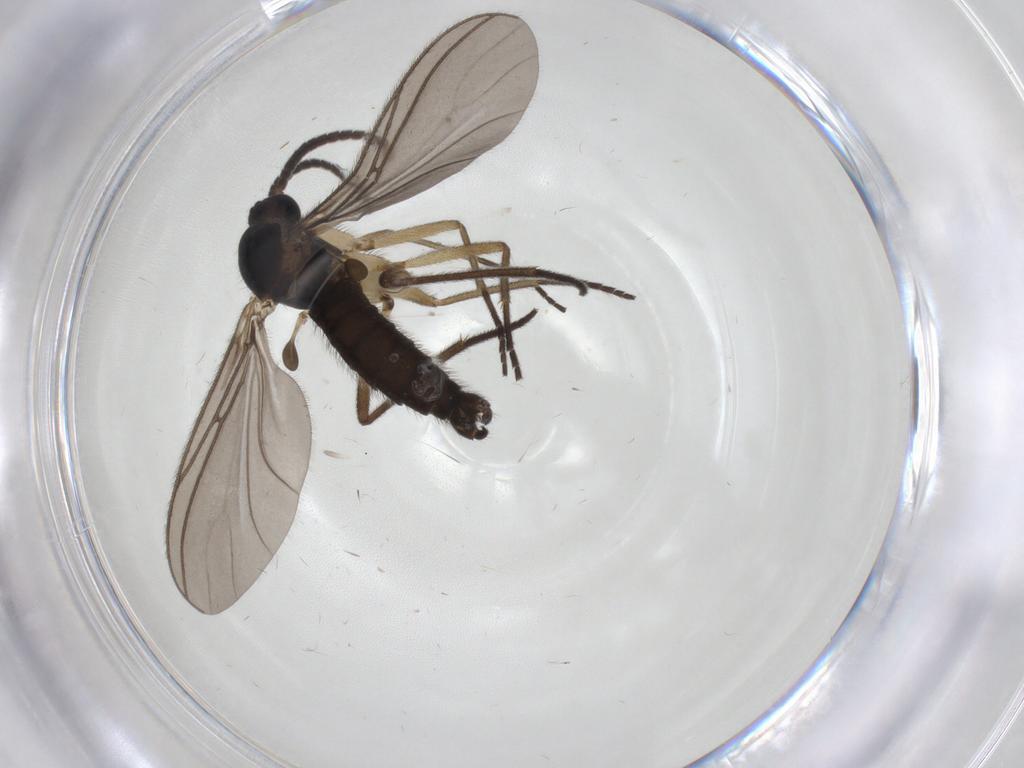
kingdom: Animalia
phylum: Arthropoda
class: Insecta
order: Diptera
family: Sciaridae
